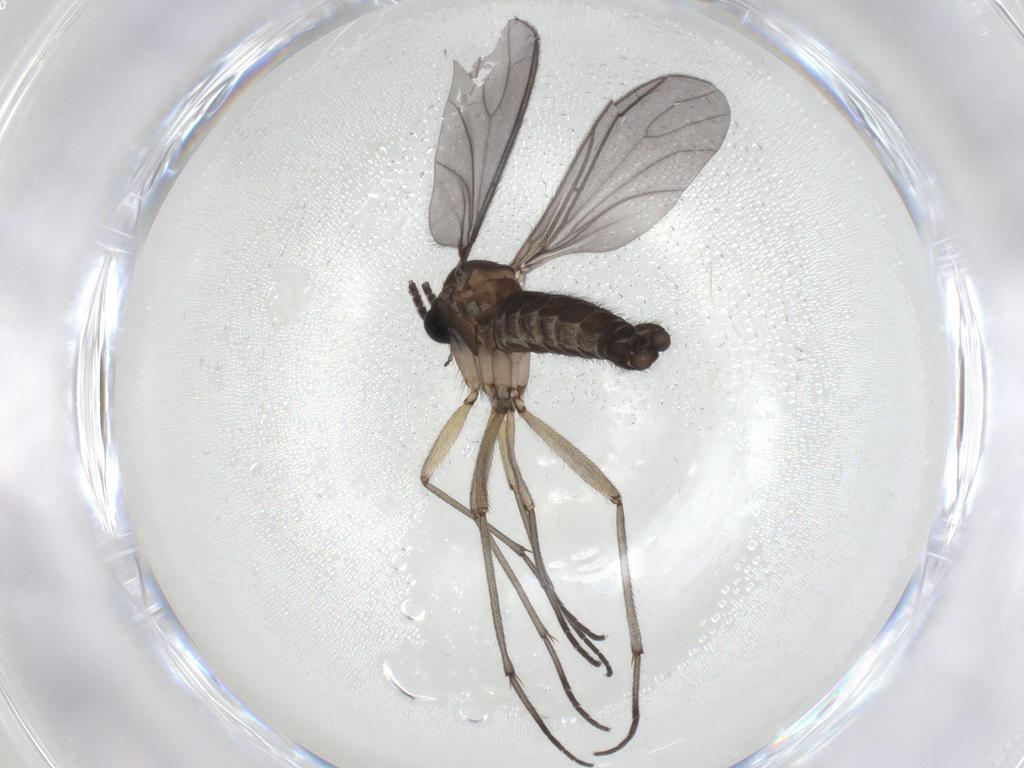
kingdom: Animalia
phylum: Arthropoda
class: Insecta
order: Diptera
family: Sciaridae
